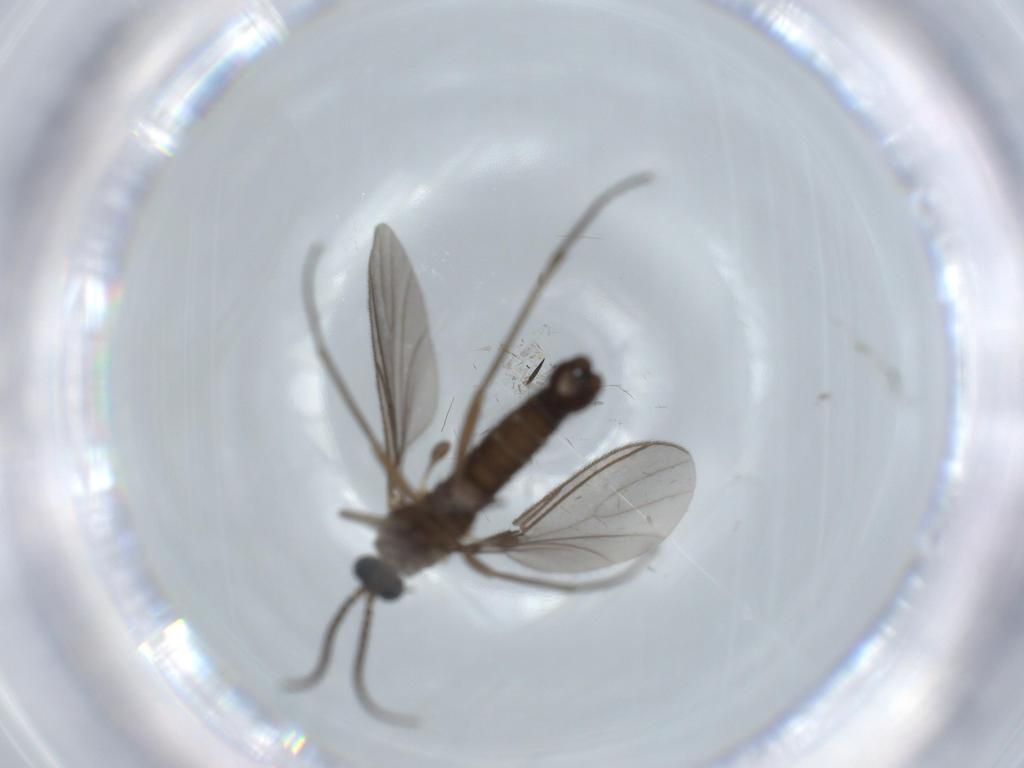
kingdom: Animalia
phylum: Arthropoda
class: Insecta
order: Diptera
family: Sciaridae
